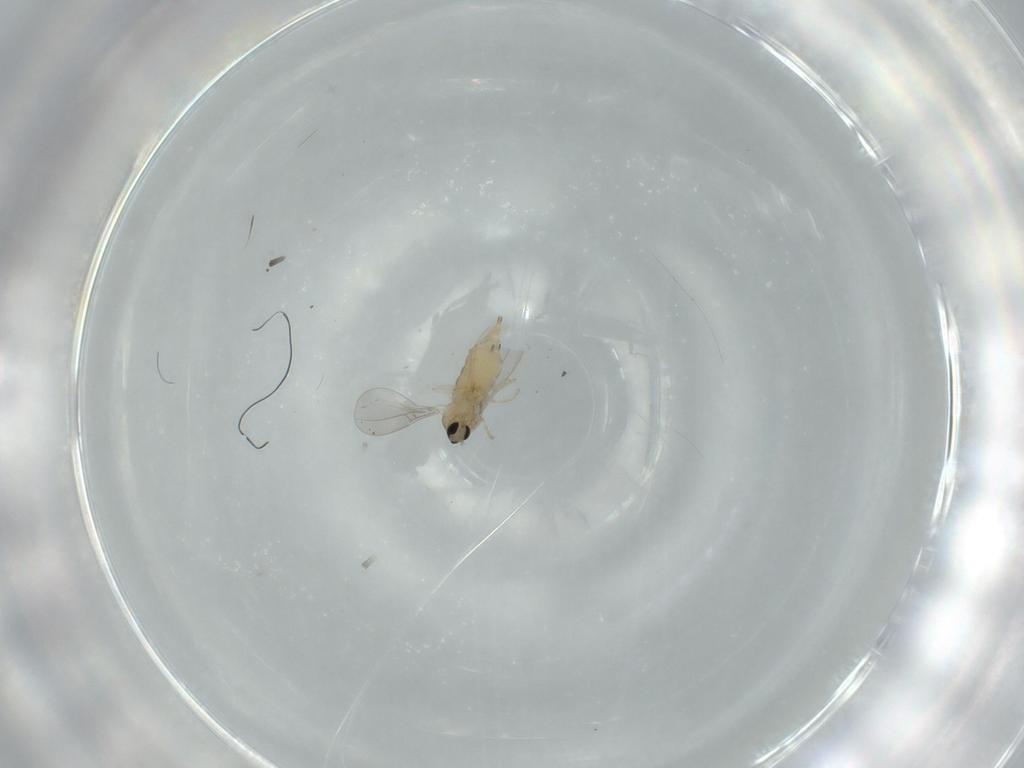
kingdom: Animalia
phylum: Arthropoda
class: Insecta
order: Diptera
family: Cecidomyiidae
